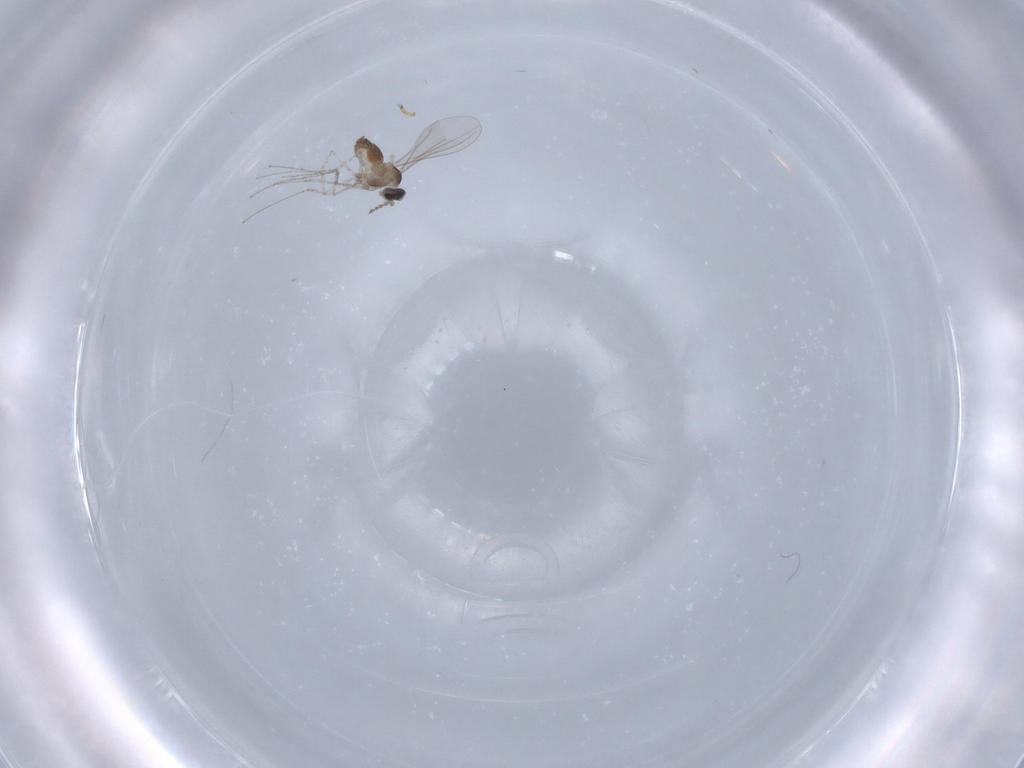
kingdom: Animalia
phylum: Arthropoda
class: Insecta
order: Diptera
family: Cecidomyiidae
